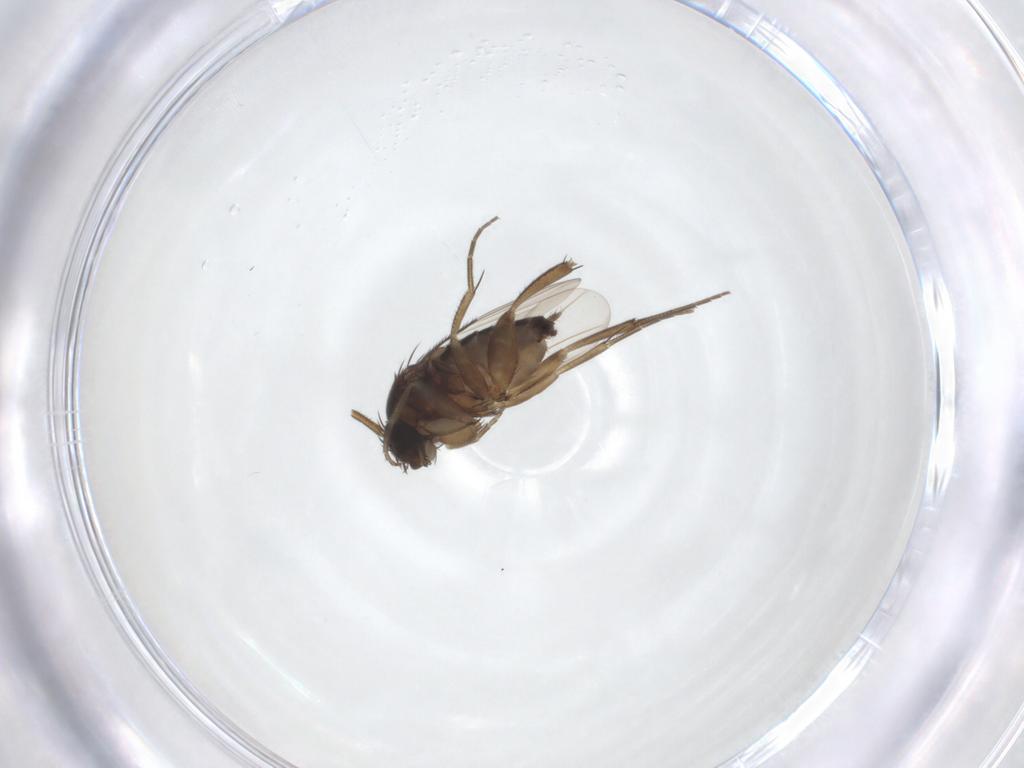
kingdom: Animalia
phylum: Arthropoda
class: Insecta
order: Diptera
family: Phoridae
